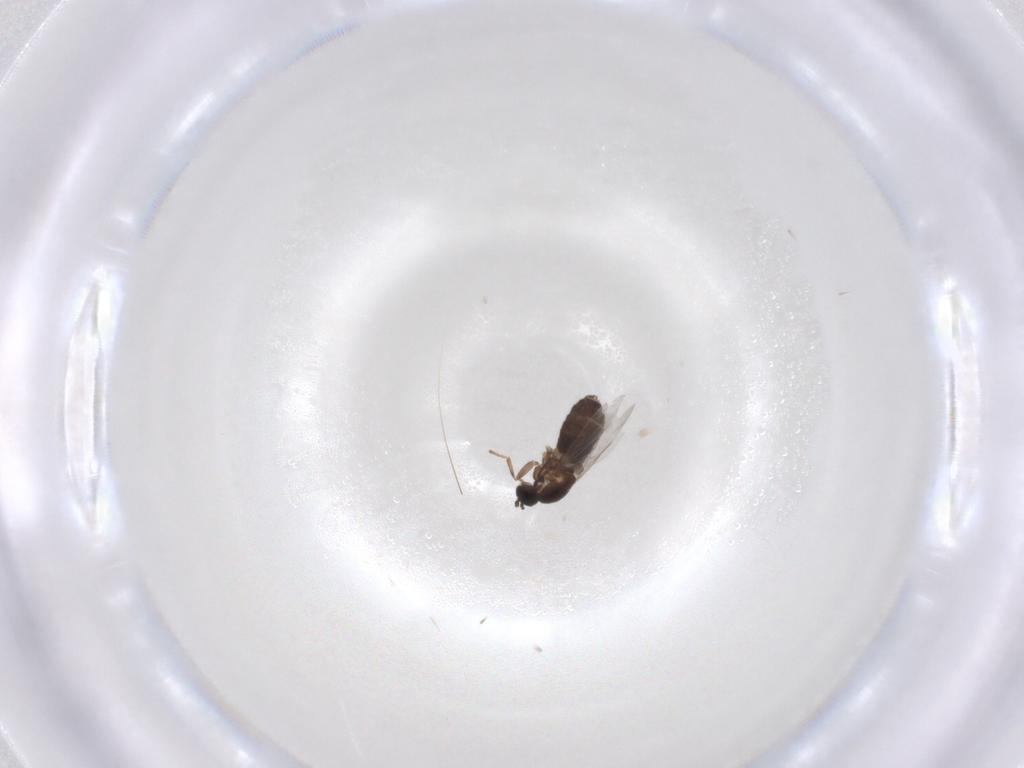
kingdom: Animalia
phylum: Arthropoda
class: Insecta
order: Diptera
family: Scatopsidae
